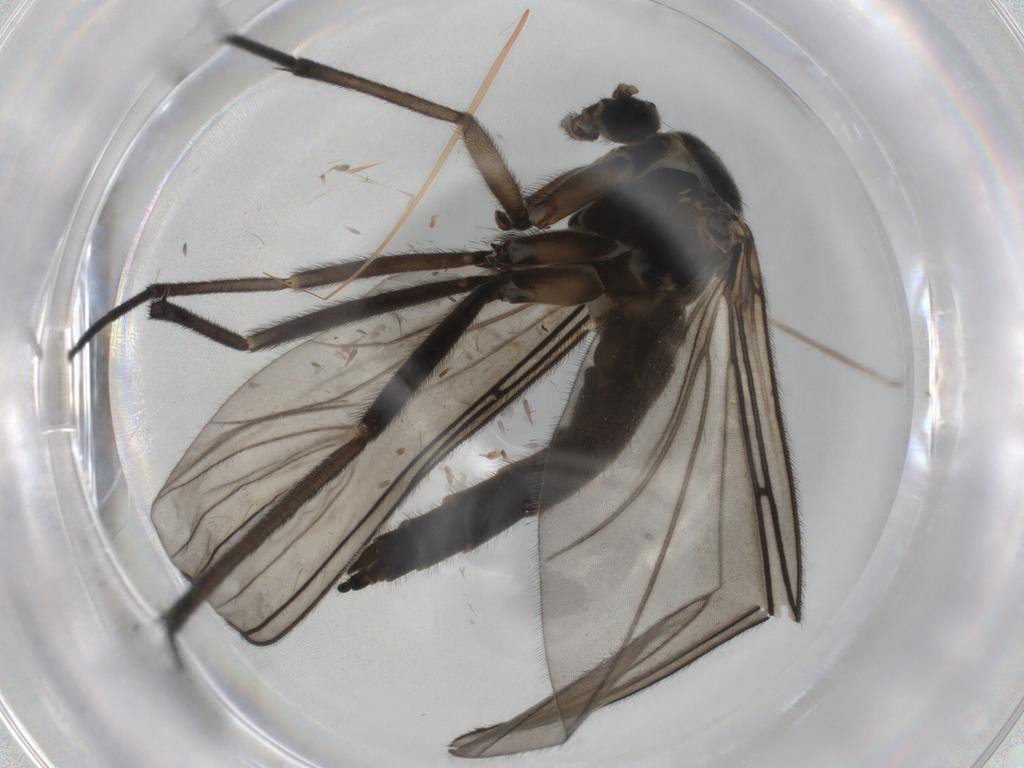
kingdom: Animalia
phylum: Arthropoda
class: Insecta
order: Diptera
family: Sciaridae
